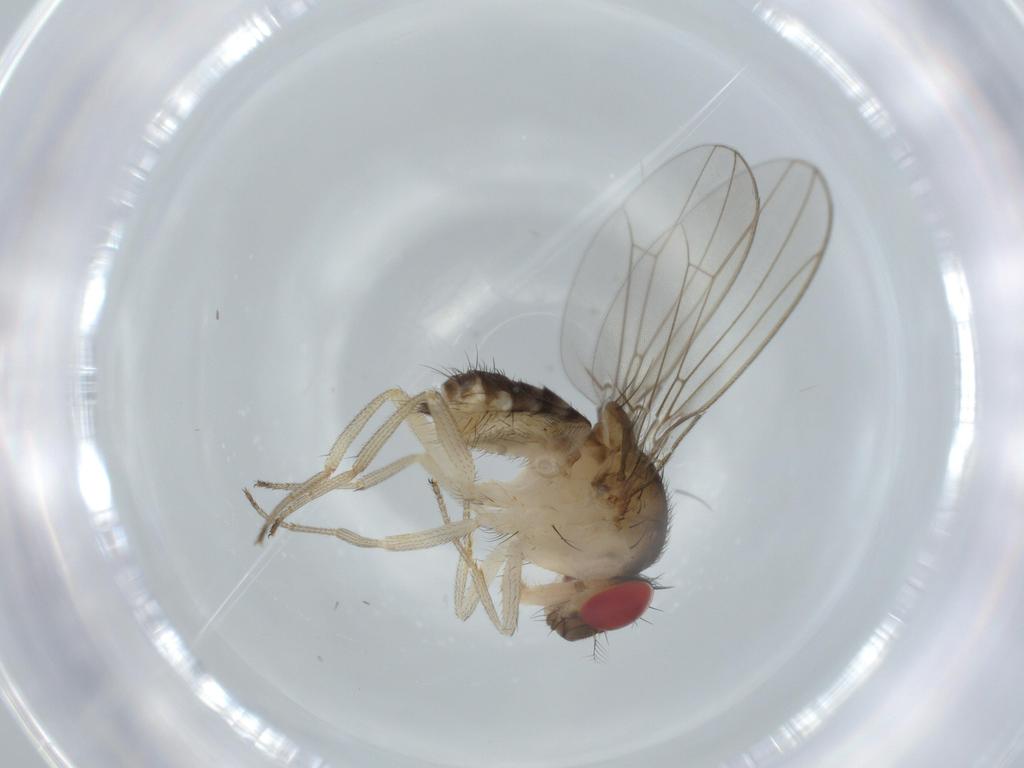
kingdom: Animalia
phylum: Arthropoda
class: Insecta
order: Diptera
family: Drosophilidae
